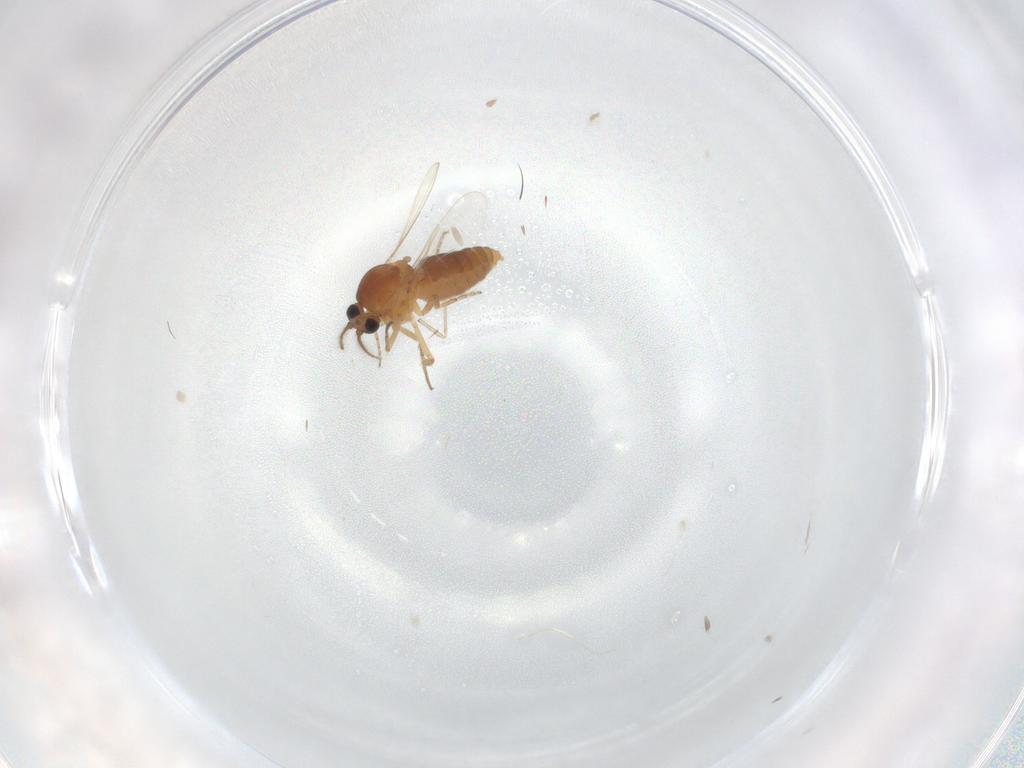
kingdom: Animalia
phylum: Arthropoda
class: Insecta
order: Diptera
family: Ceratopogonidae
